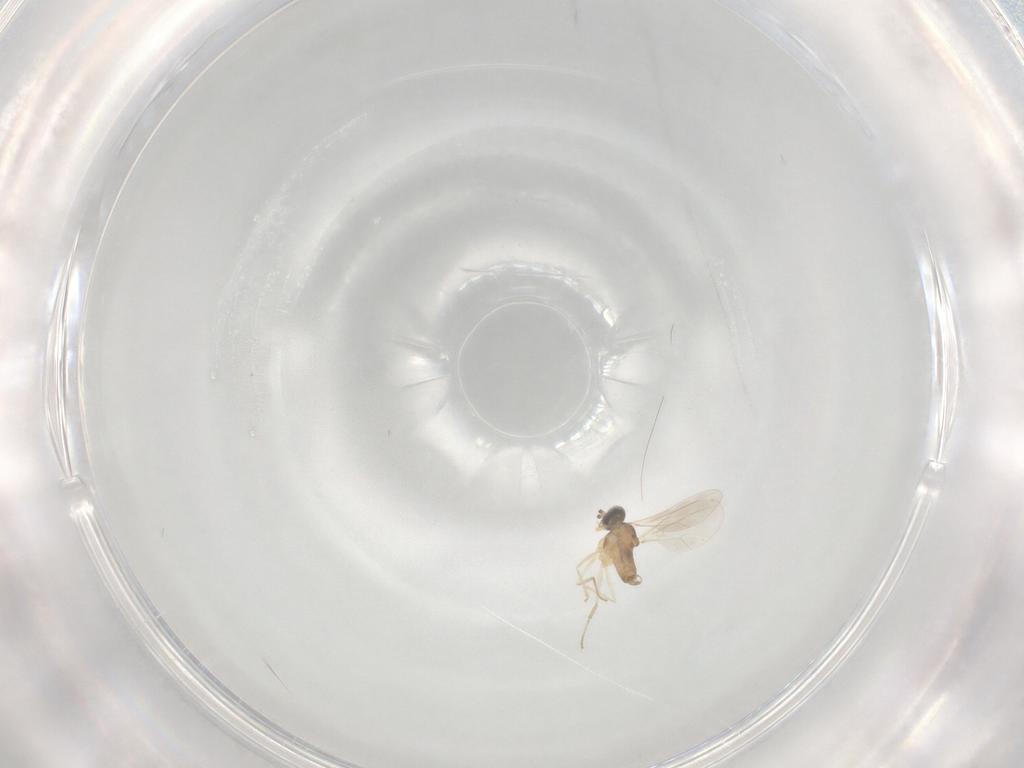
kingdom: Animalia
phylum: Arthropoda
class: Insecta
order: Diptera
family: Cecidomyiidae
